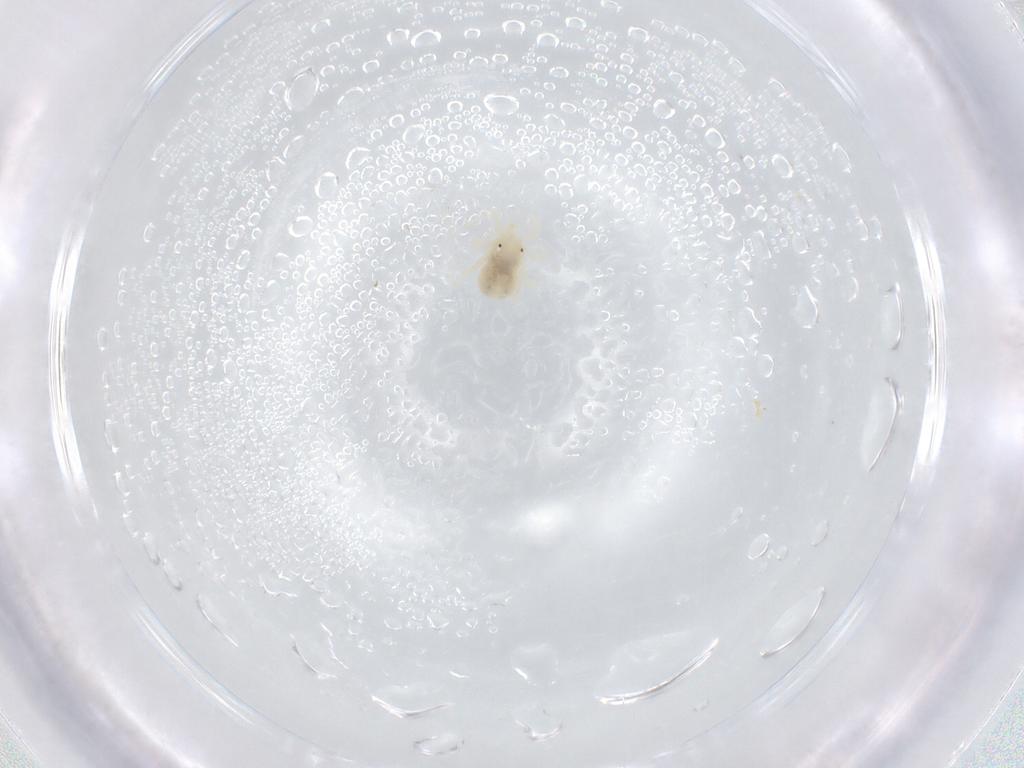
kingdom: Animalia
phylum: Arthropoda
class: Arachnida
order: Trombidiformes
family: Anystidae
